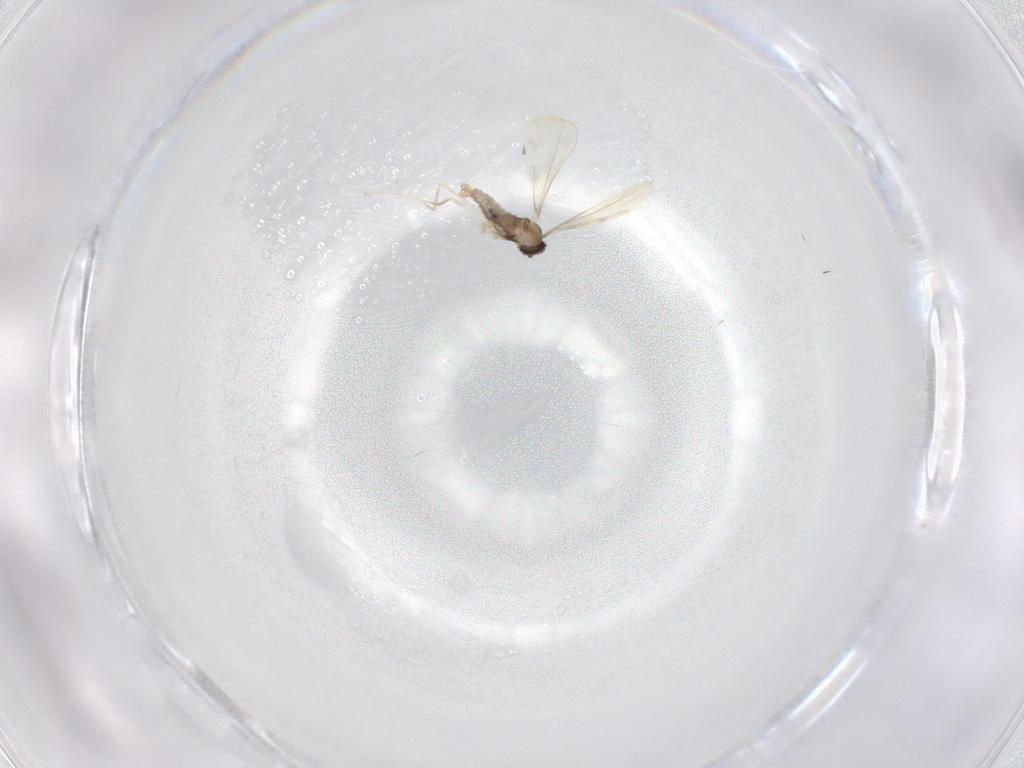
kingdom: Animalia
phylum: Arthropoda
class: Insecta
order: Diptera
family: Cecidomyiidae
